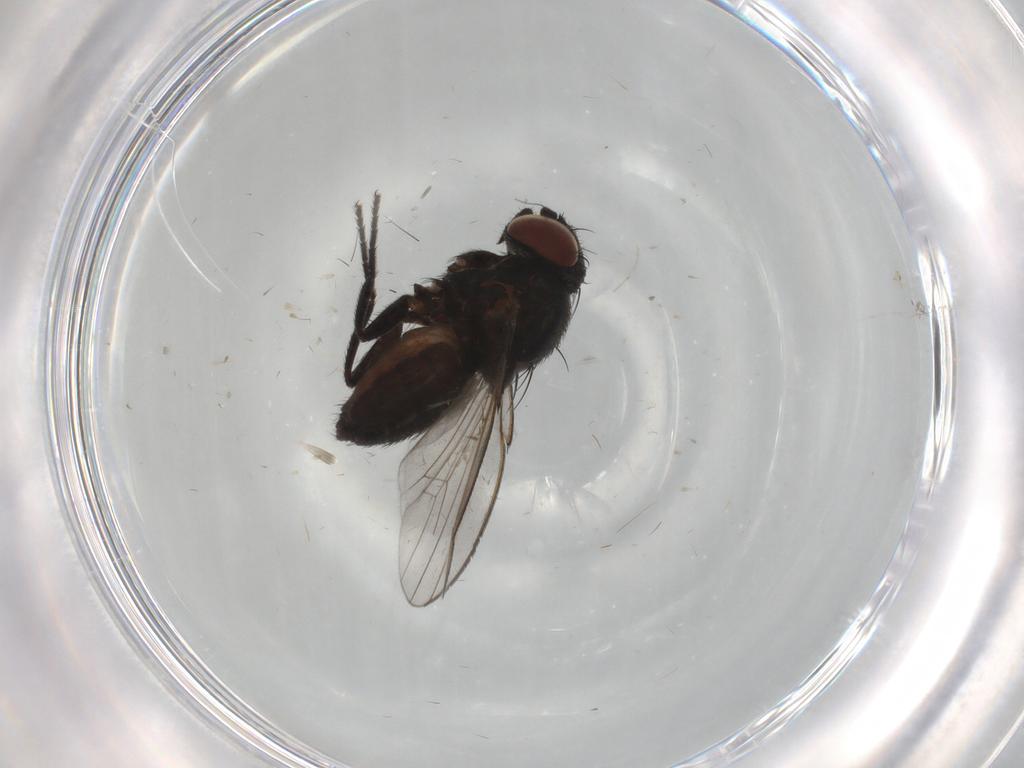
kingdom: Animalia
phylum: Arthropoda
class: Insecta
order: Diptera
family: Milichiidae
